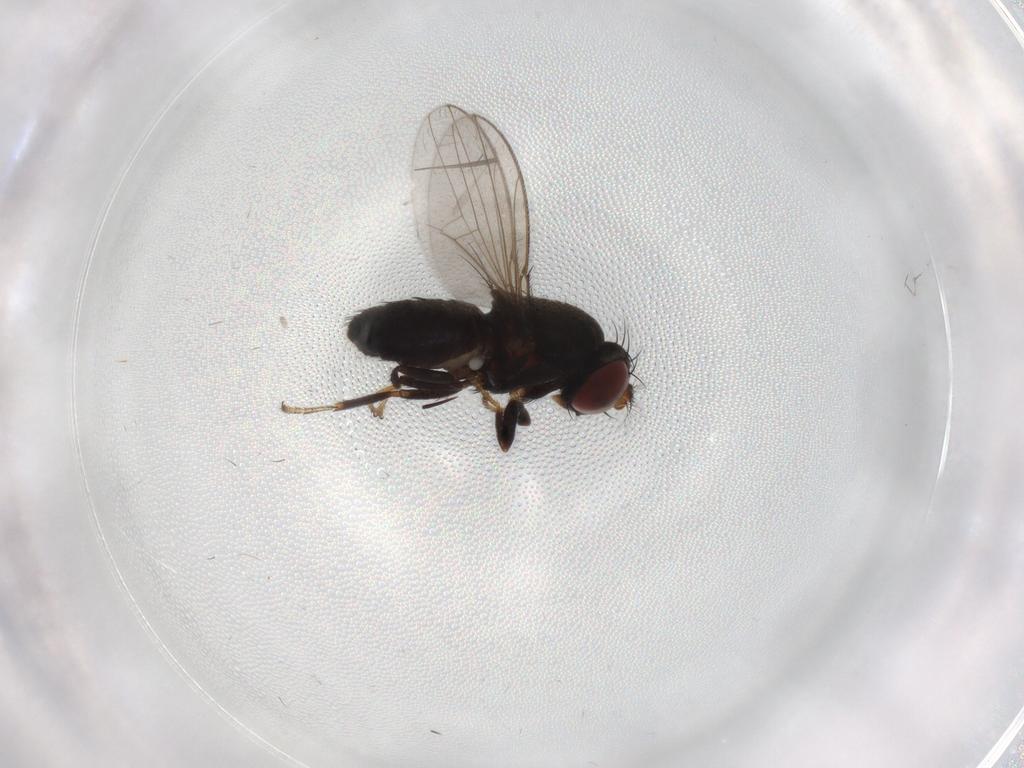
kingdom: Animalia
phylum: Arthropoda
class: Insecta
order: Diptera
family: Ephydridae
